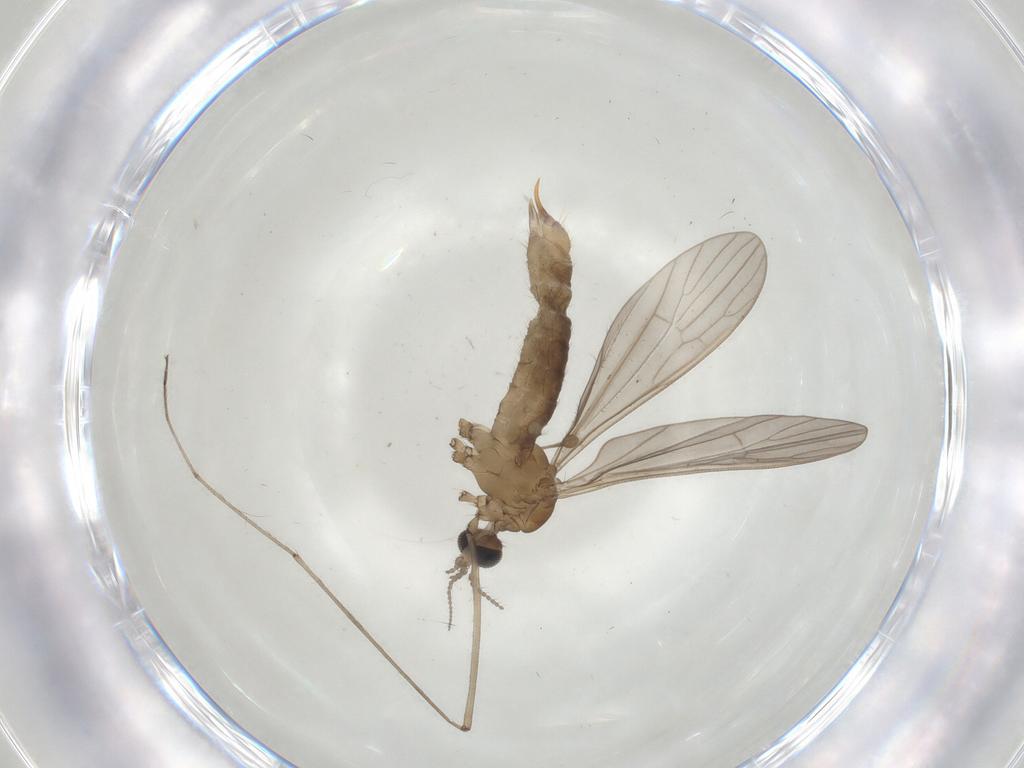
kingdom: Animalia
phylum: Arthropoda
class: Insecta
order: Diptera
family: Limoniidae
